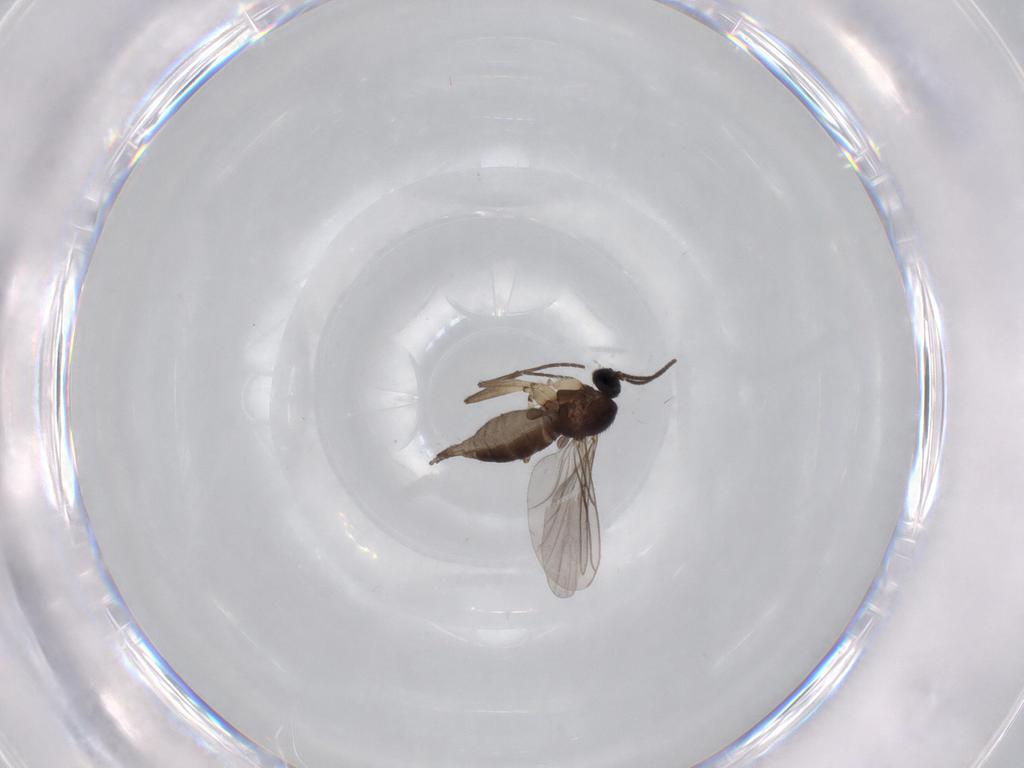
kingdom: Animalia
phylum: Arthropoda
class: Insecta
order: Diptera
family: Sciaridae
